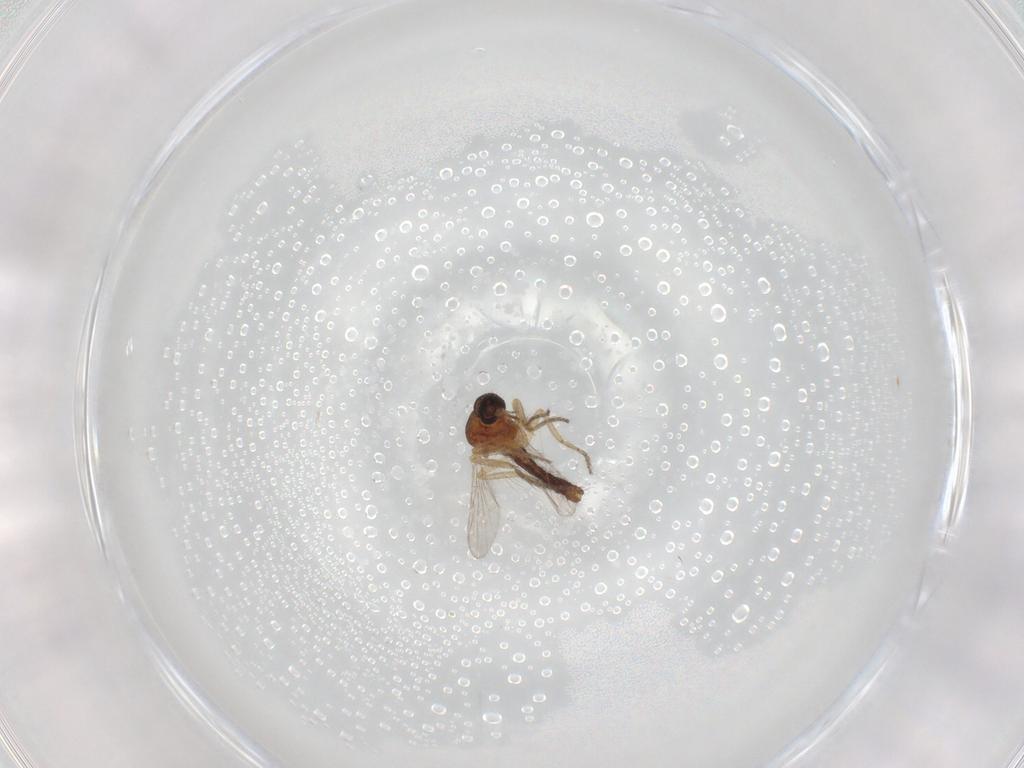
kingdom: Animalia
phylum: Arthropoda
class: Insecta
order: Diptera
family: Ceratopogonidae
